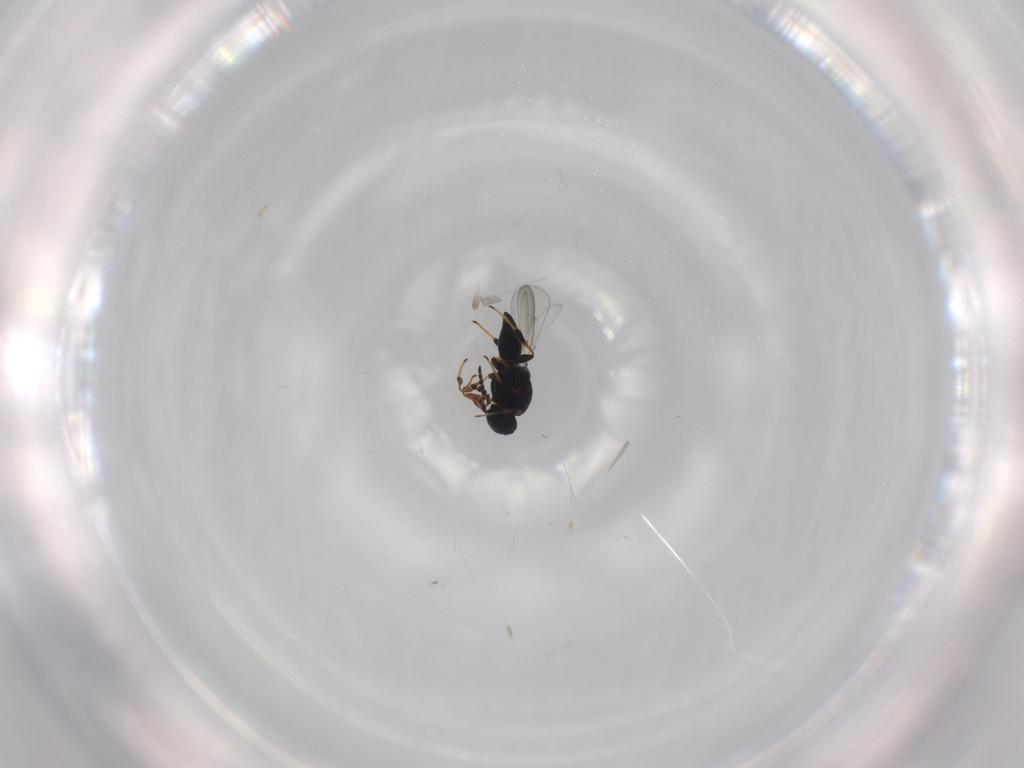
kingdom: Animalia
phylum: Arthropoda
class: Insecta
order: Hymenoptera
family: Platygastridae
